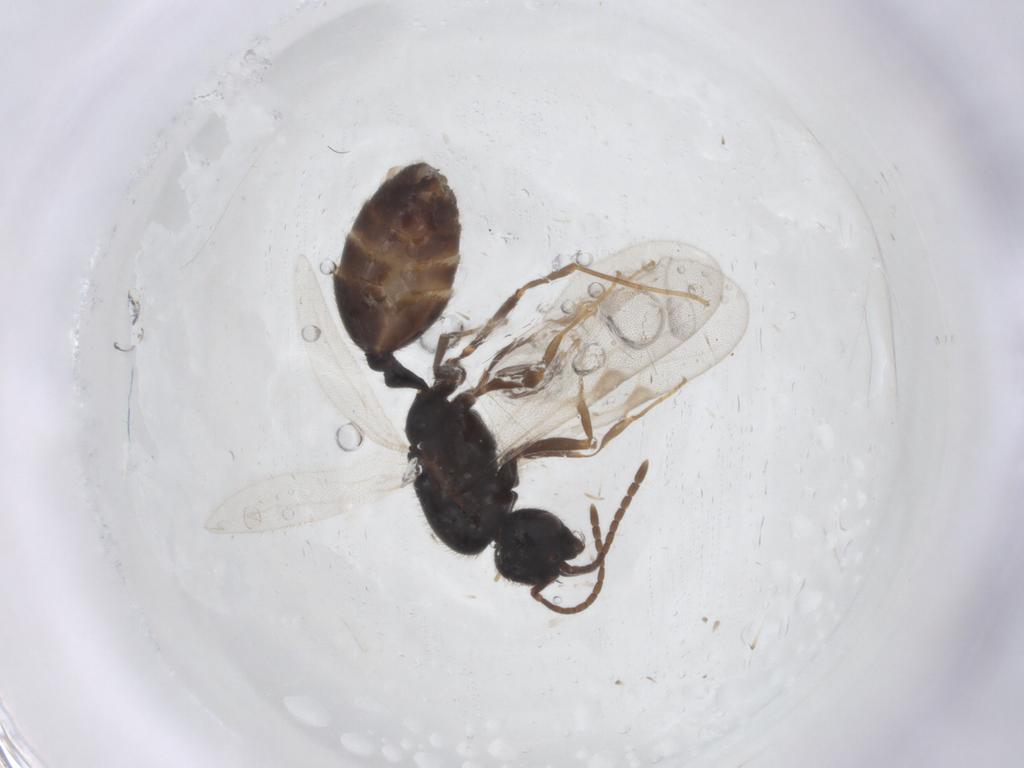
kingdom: Animalia
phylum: Arthropoda
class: Insecta
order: Hymenoptera
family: Formicidae
